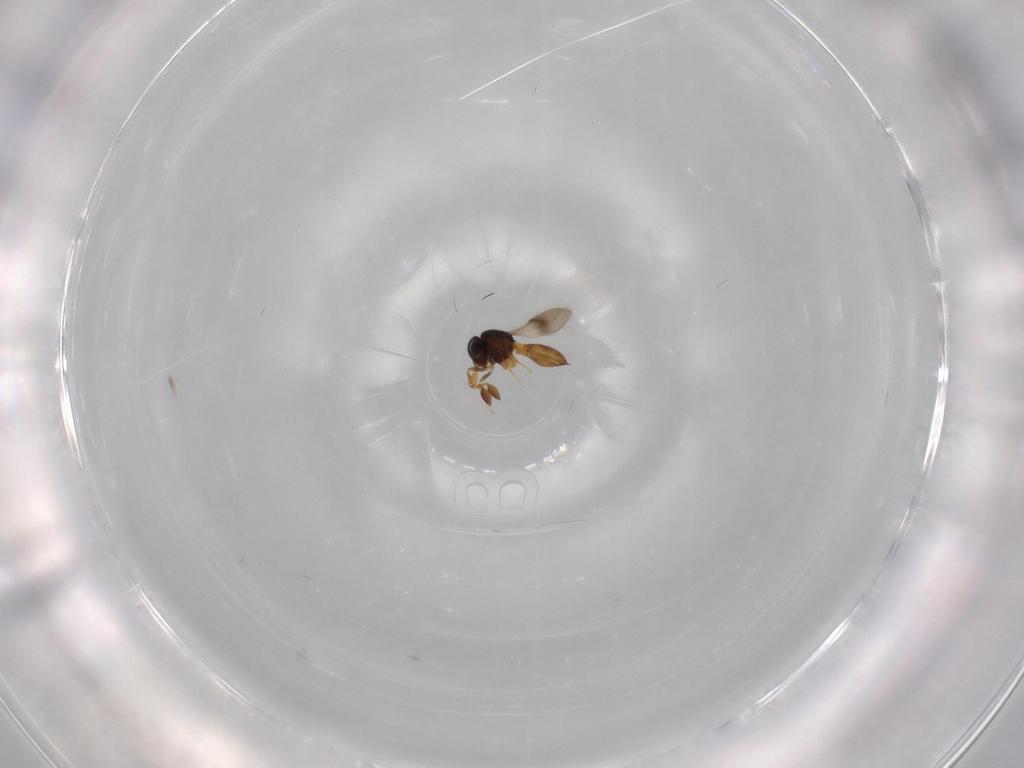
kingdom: Animalia
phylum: Arthropoda
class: Insecta
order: Hymenoptera
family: Scelionidae
